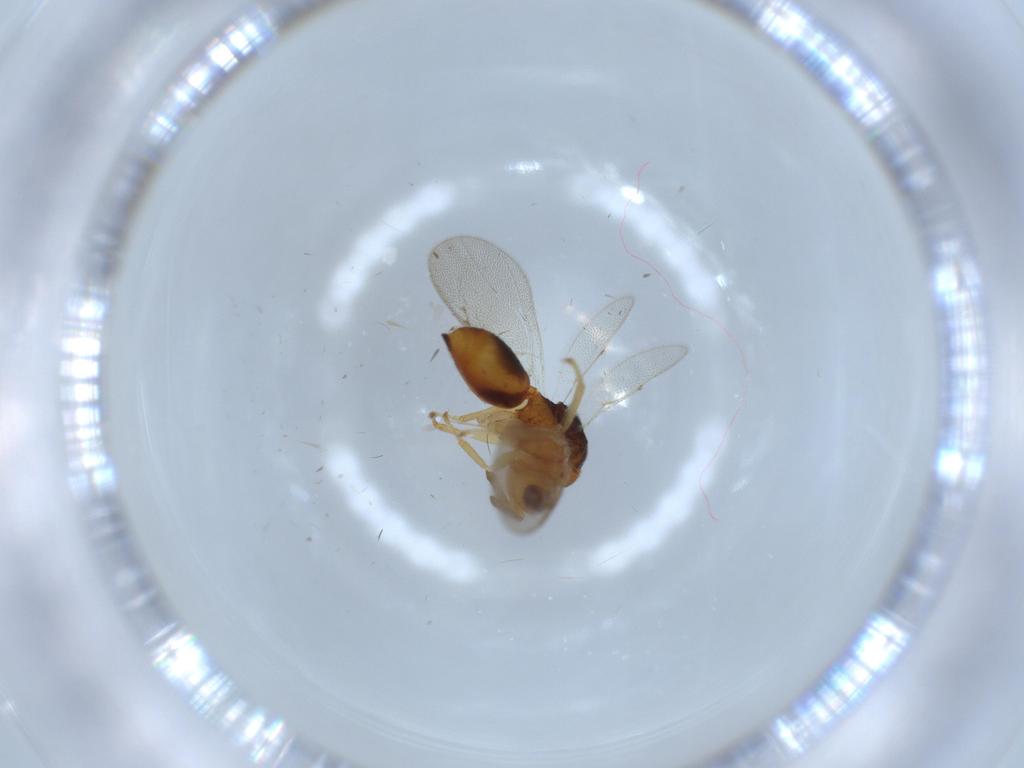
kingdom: Animalia
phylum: Arthropoda
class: Insecta
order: Hymenoptera
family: Eurytomidae
